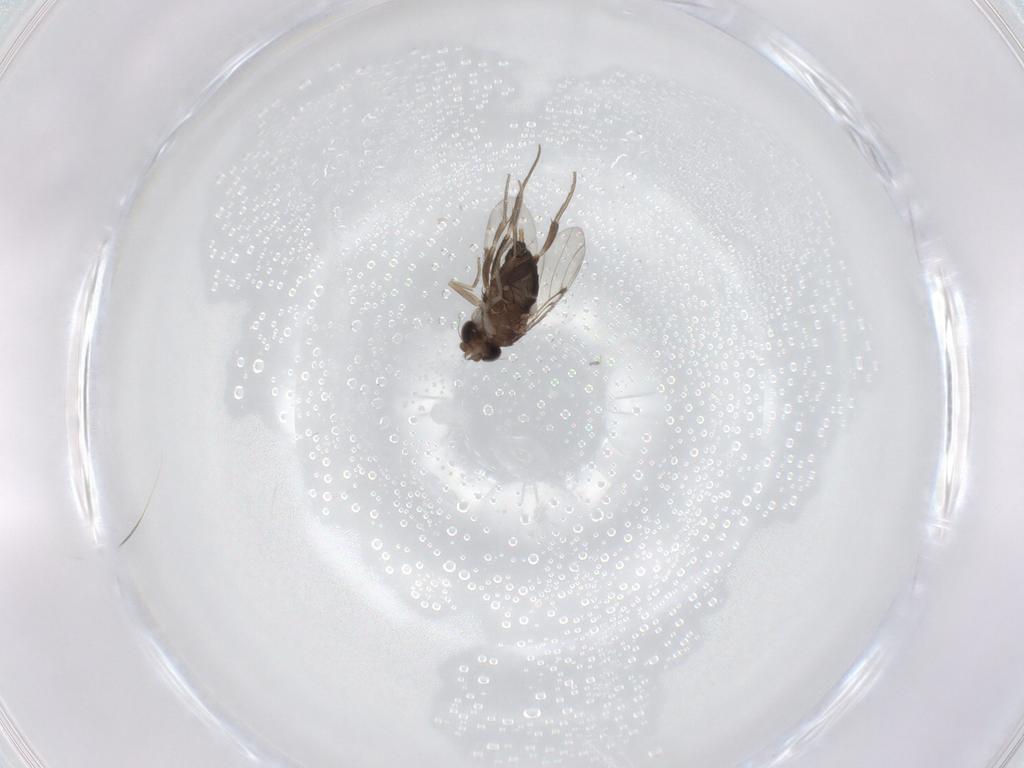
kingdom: Animalia
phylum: Arthropoda
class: Insecta
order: Diptera
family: Phoridae
